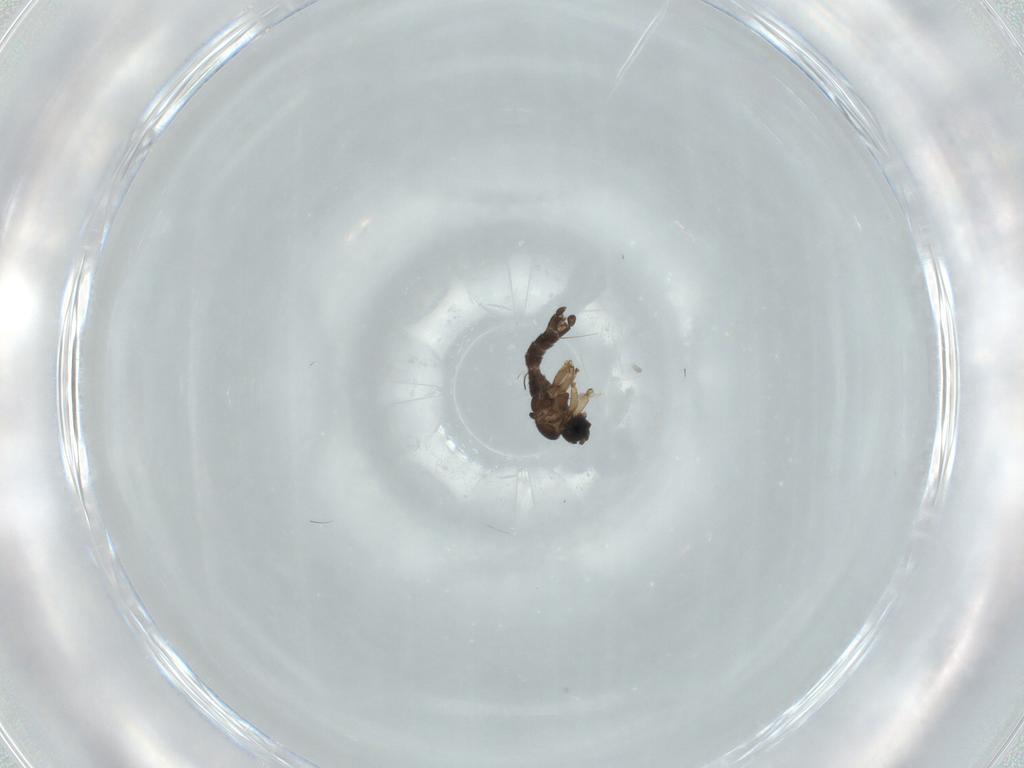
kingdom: Animalia
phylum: Arthropoda
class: Insecta
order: Diptera
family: Sciaridae
